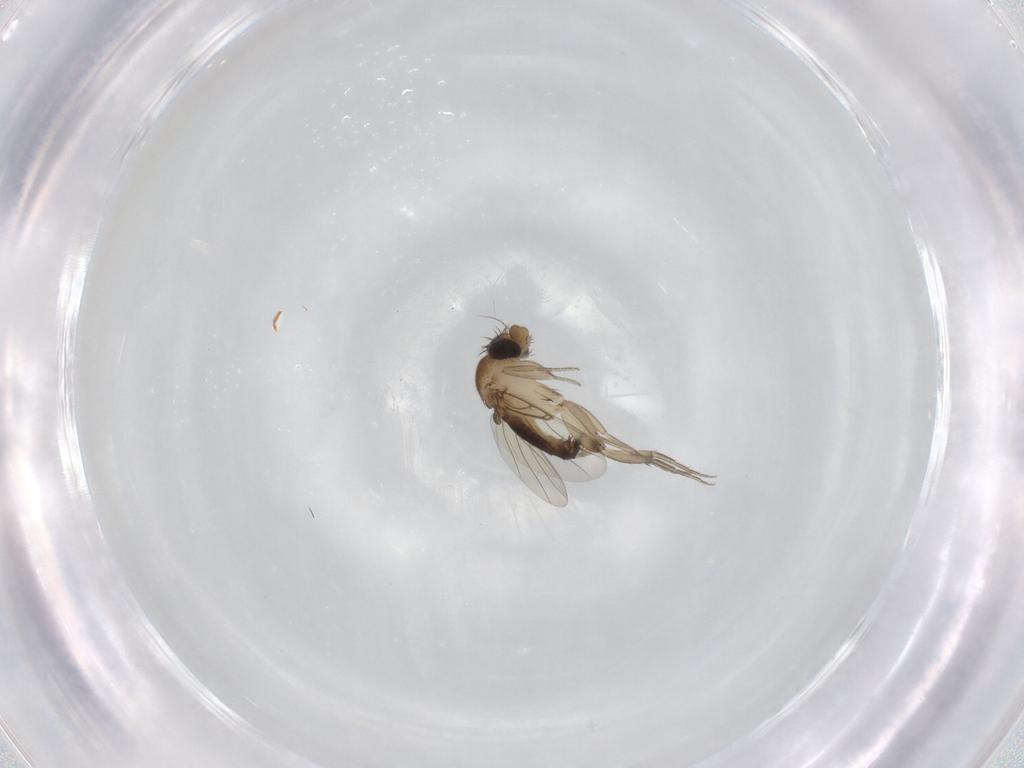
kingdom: Animalia
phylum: Arthropoda
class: Insecta
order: Diptera
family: Phoridae
